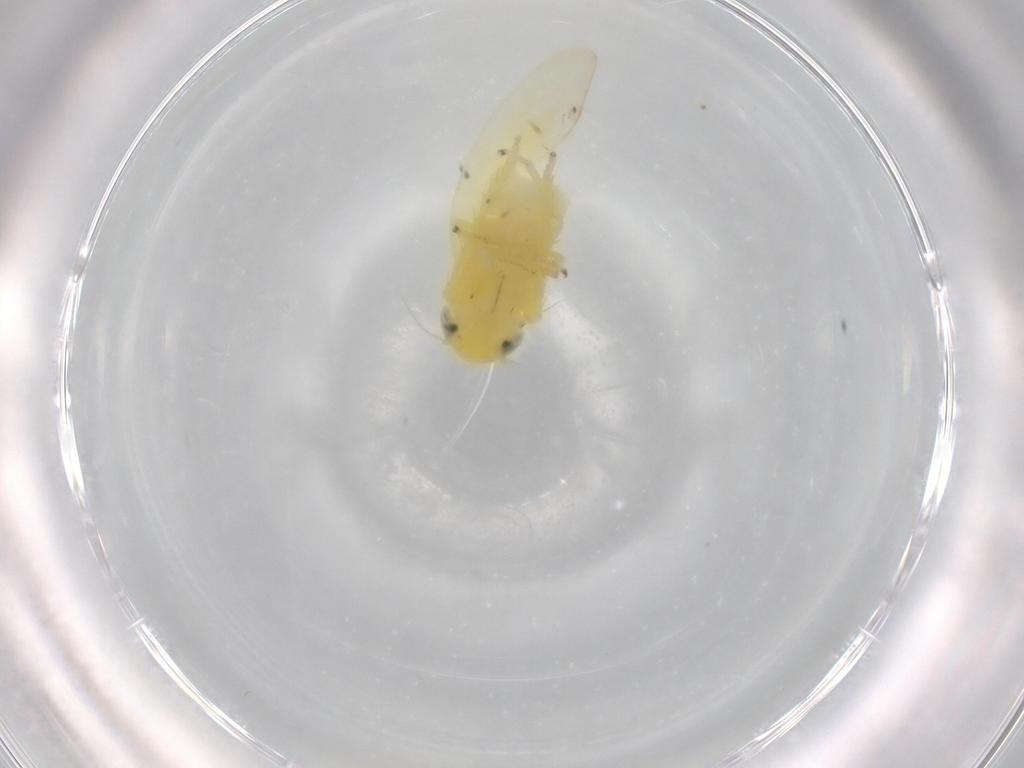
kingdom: Animalia
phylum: Arthropoda
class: Insecta
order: Hemiptera
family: Cicadellidae
